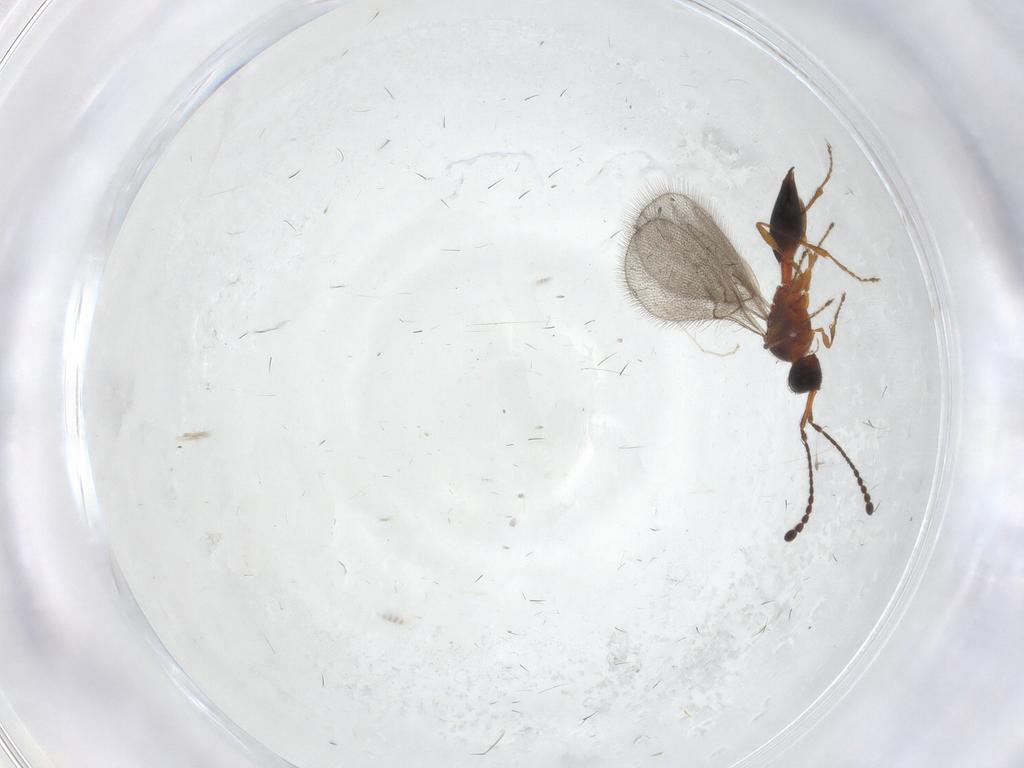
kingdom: Animalia
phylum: Arthropoda
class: Insecta
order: Hymenoptera
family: Diapriidae
